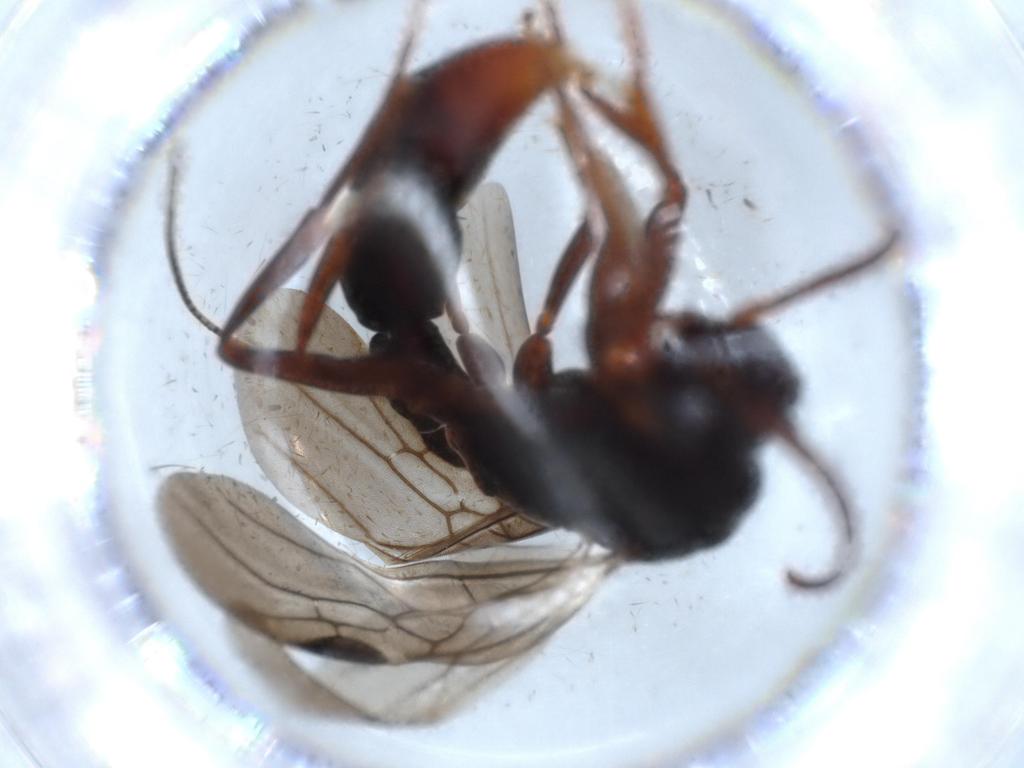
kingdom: Animalia
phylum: Arthropoda
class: Insecta
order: Hymenoptera
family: Formicidae
